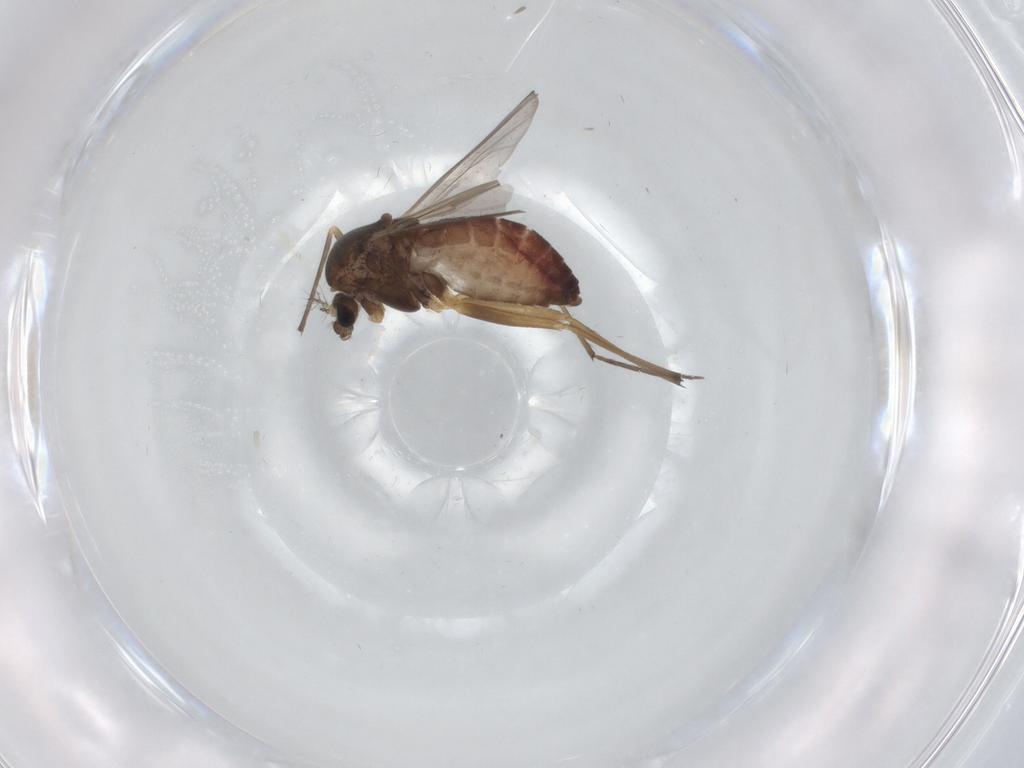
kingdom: Animalia
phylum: Arthropoda
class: Insecta
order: Diptera
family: Chironomidae
